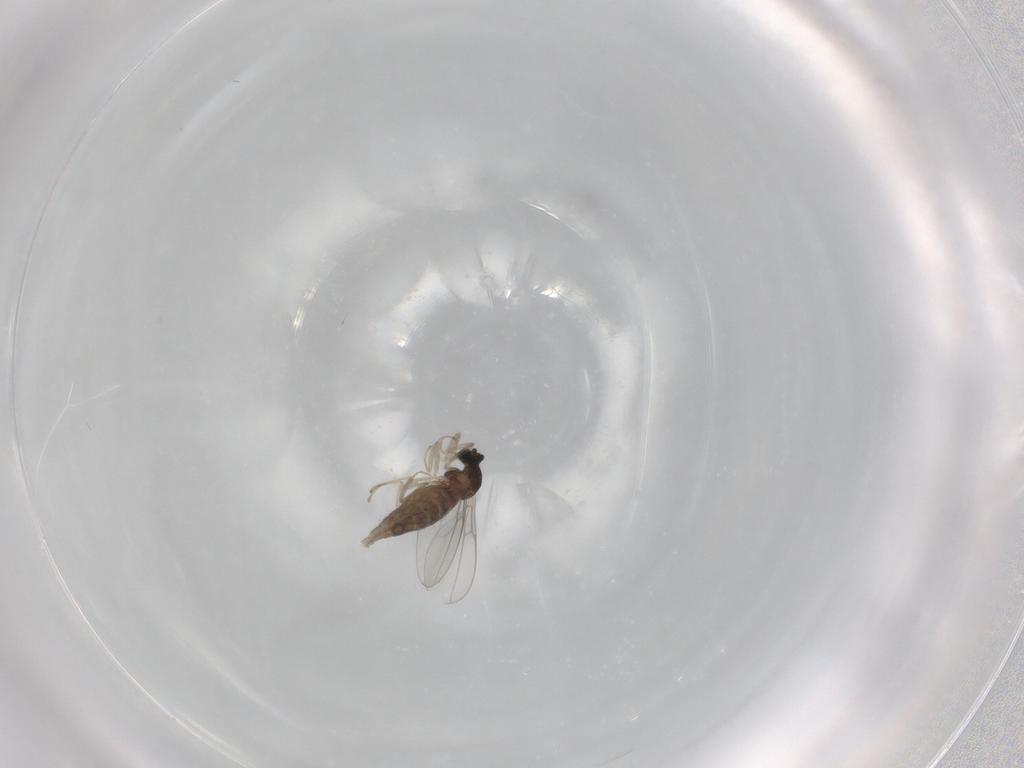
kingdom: Animalia
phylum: Arthropoda
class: Insecta
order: Diptera
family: Cecidomyiidae
